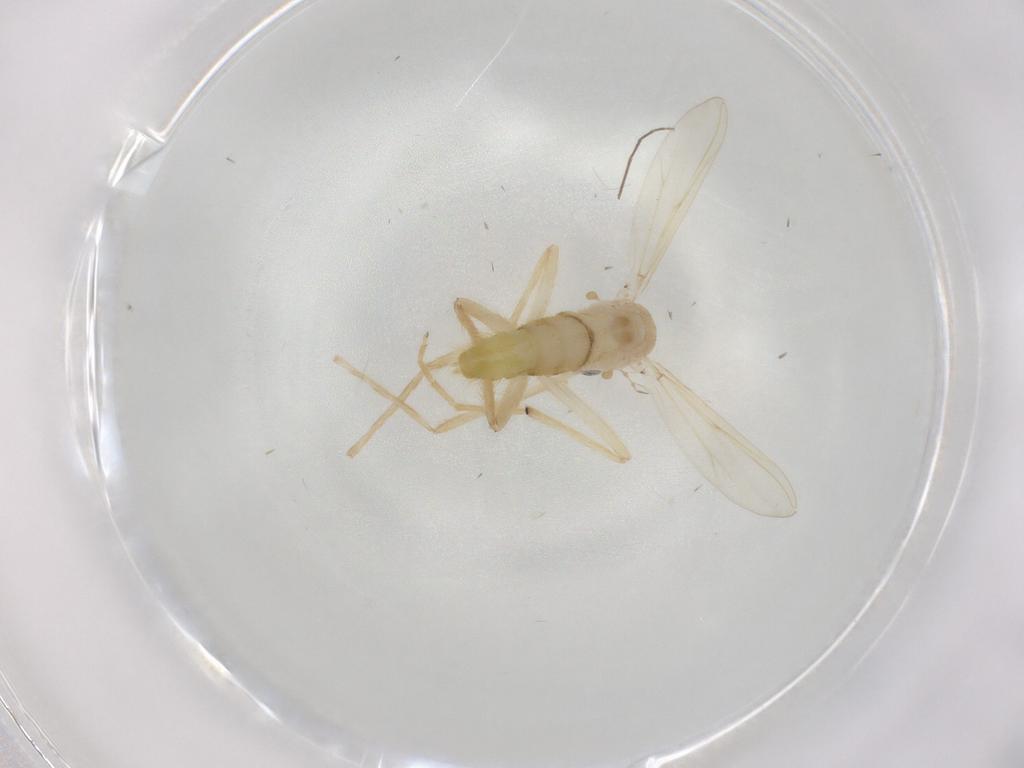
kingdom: Animalia
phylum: Arthropoda
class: Insecta
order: Diptera
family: Chironomidae
